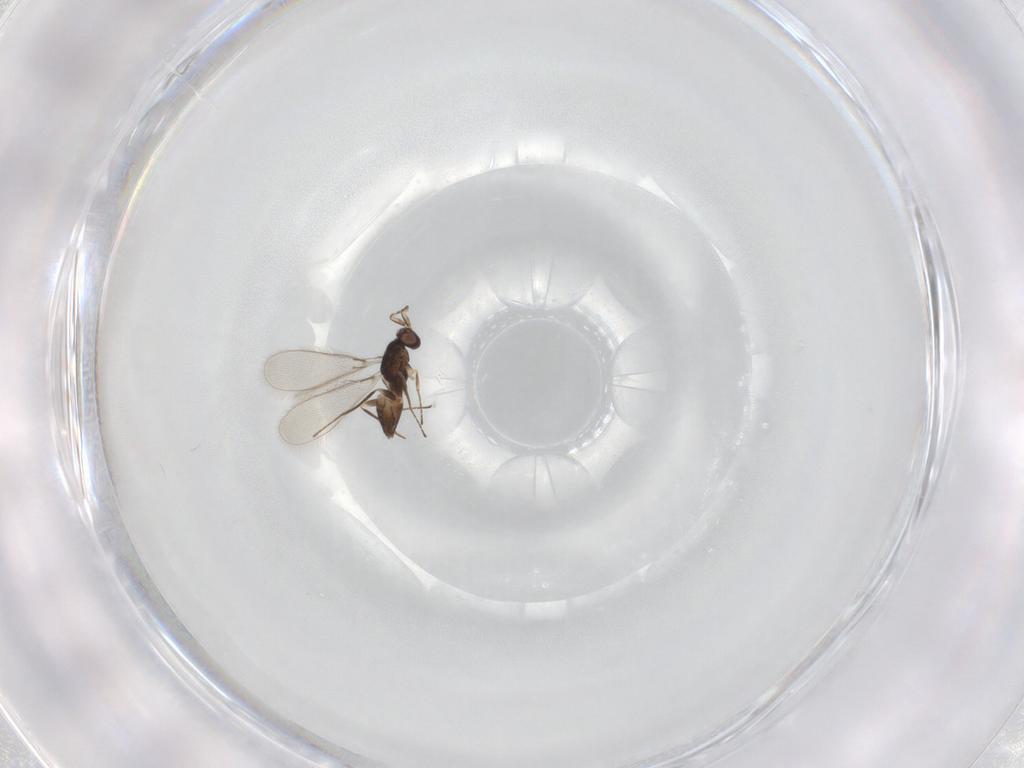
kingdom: Animalia
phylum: Arthropoda
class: Insecta
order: Hymenoptera
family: Mymaridae
